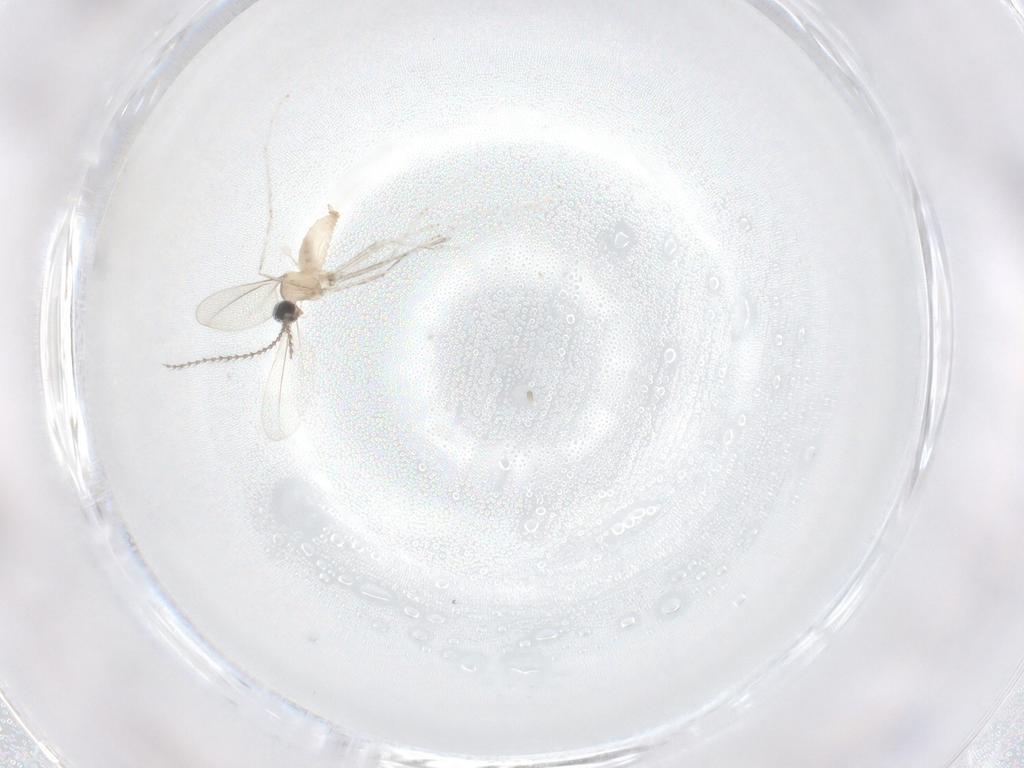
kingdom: Animalia
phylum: Arthropoda
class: Insecta
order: Diptera
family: Cecidomyiidae
